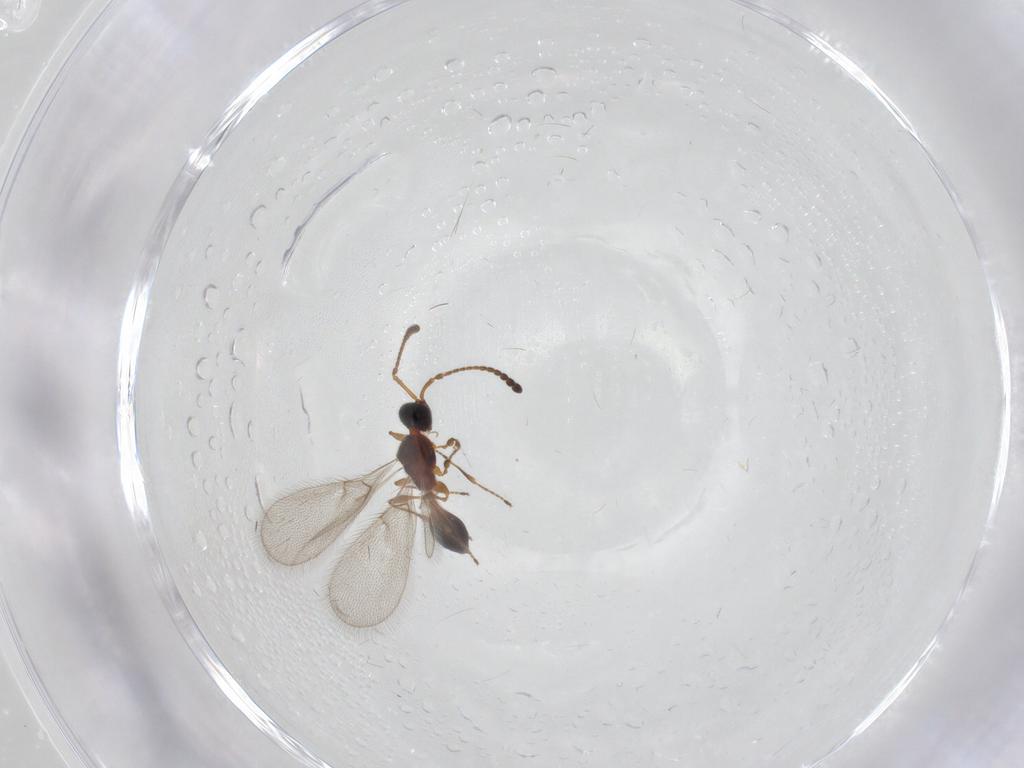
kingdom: Animalia
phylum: Arthropoda
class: Insecta
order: Hymenoptera
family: Diapriidae
